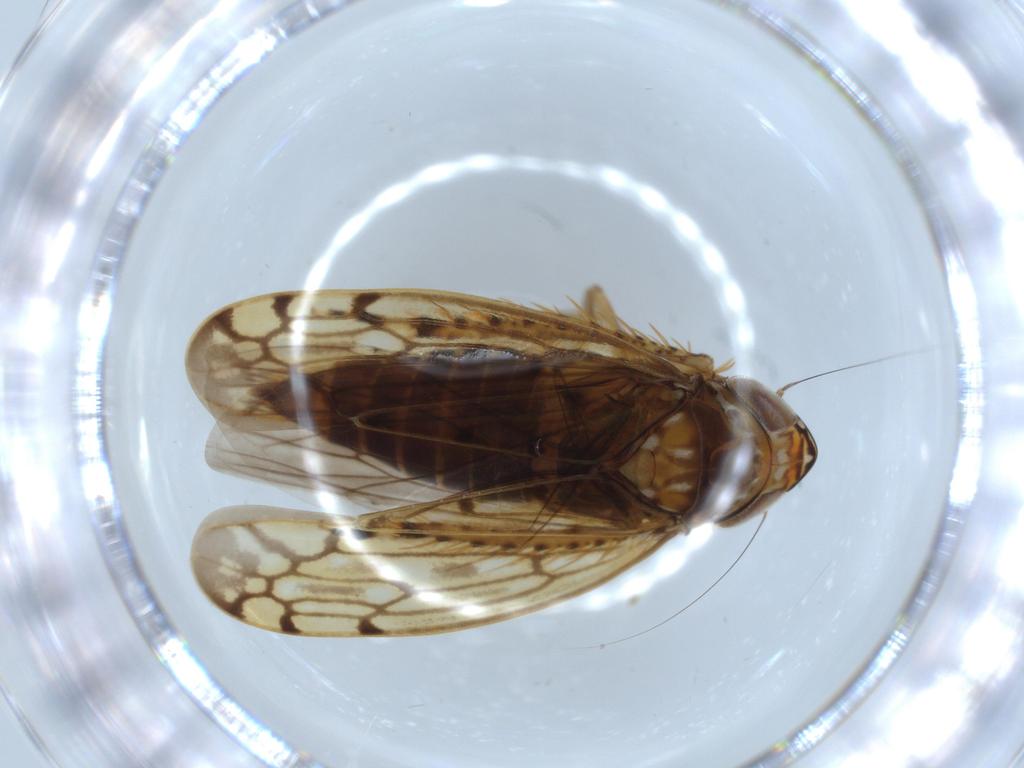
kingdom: Animalia
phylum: Arthropoda
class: Insecta
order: Hemiptera
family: Cicadellidae
